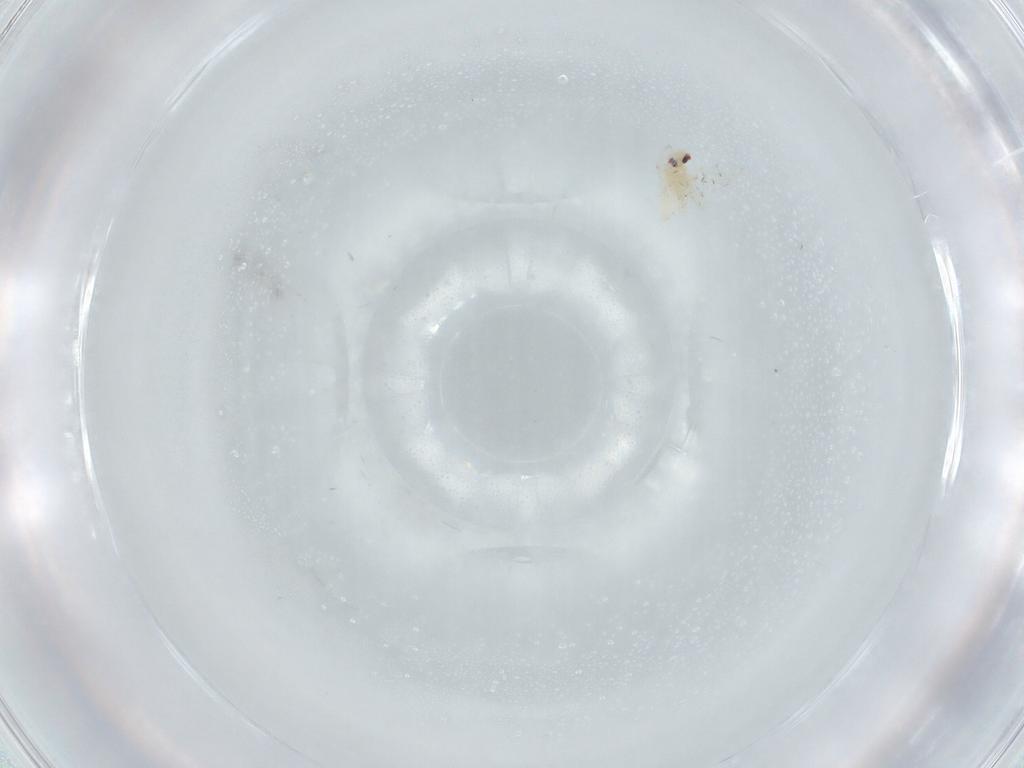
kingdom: Animalia
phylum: Arthropoda
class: Insecta
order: Hemiptera
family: Aleyrodidae
